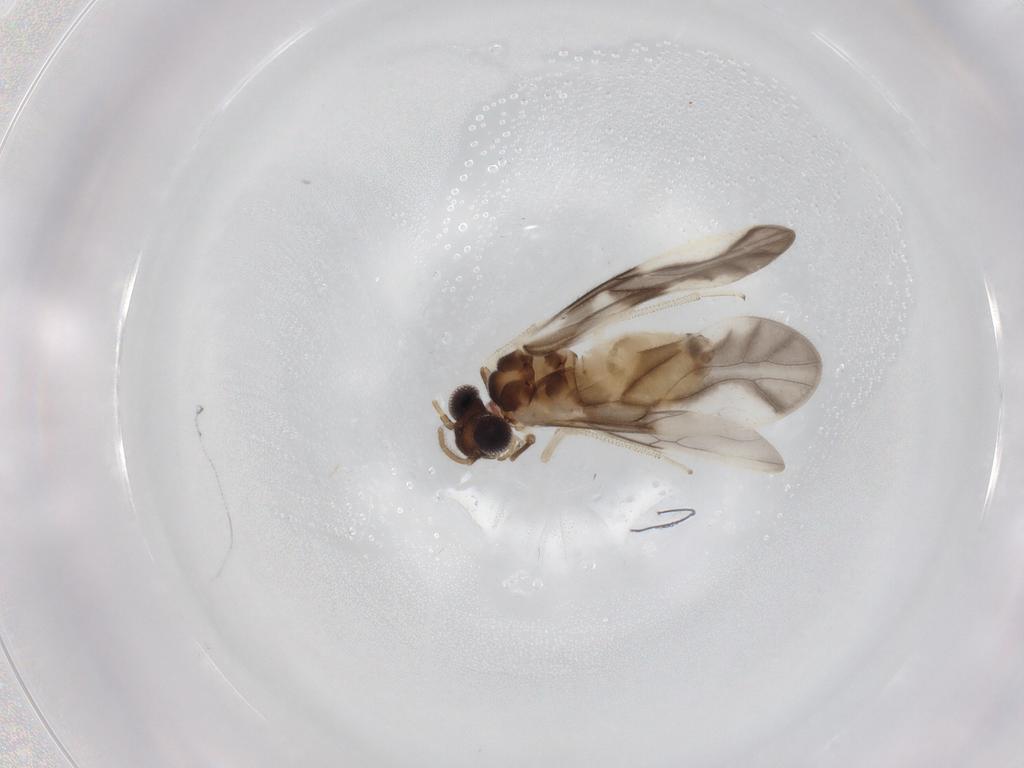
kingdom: Animalia
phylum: Arthropoda
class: Insecta
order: Psocodea
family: Caeciliusidae
